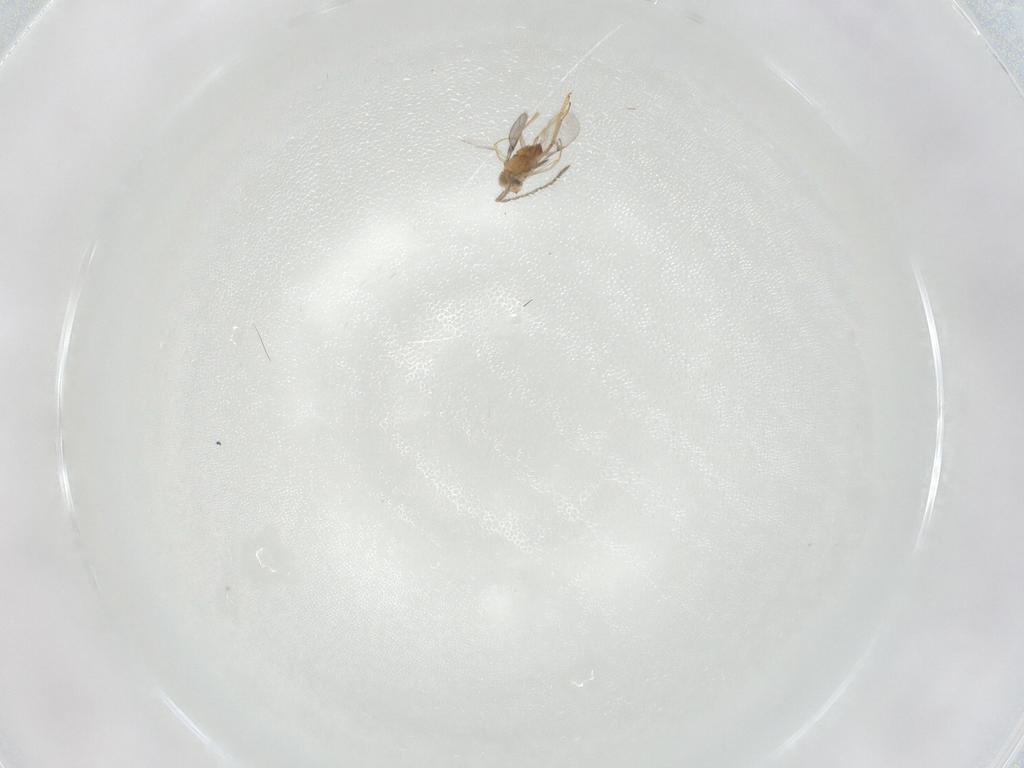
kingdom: Animalia
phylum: Arthropoda
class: Insecta
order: Hymenoptera
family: Encyrtidae
